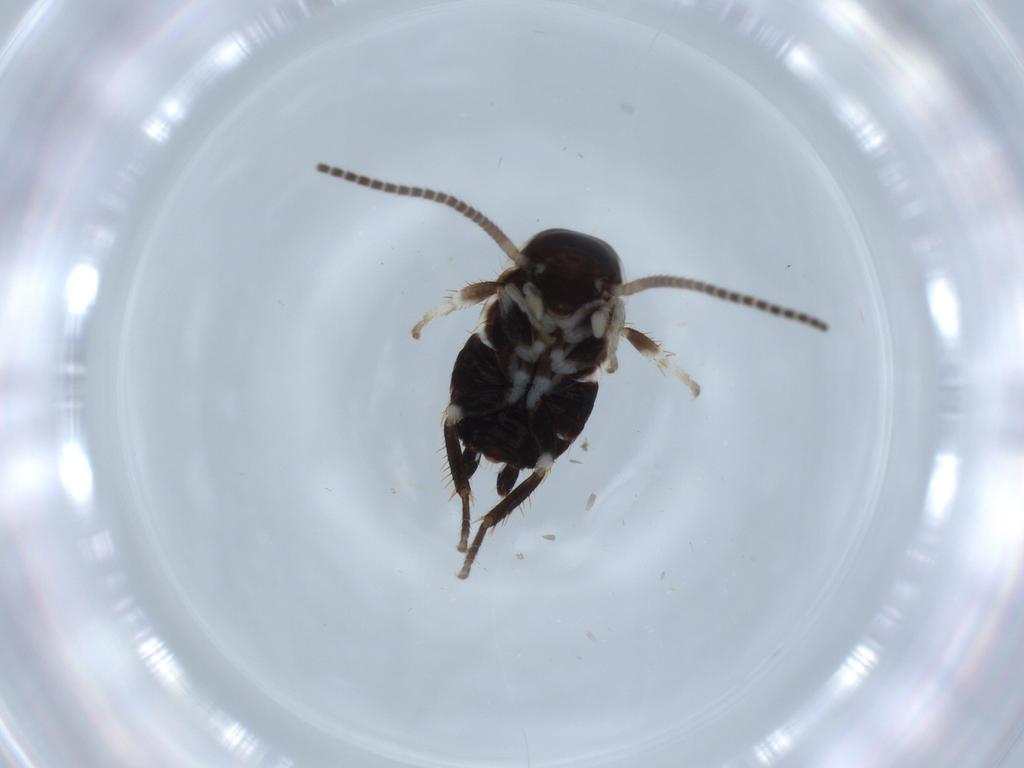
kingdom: Animalia
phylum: Arthropoda
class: Insecta
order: Blattodea
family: Ectobiidae
